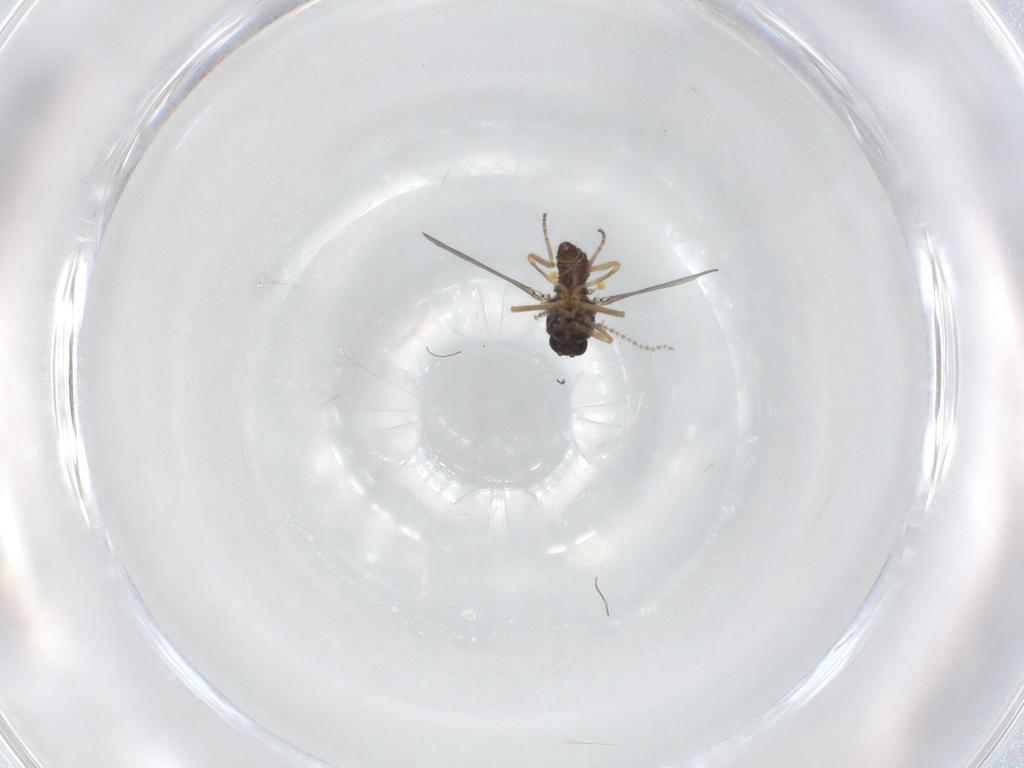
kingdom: Animalia
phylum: Arthropoda
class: Insecta
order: Diptera
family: Ceratopogonidae
